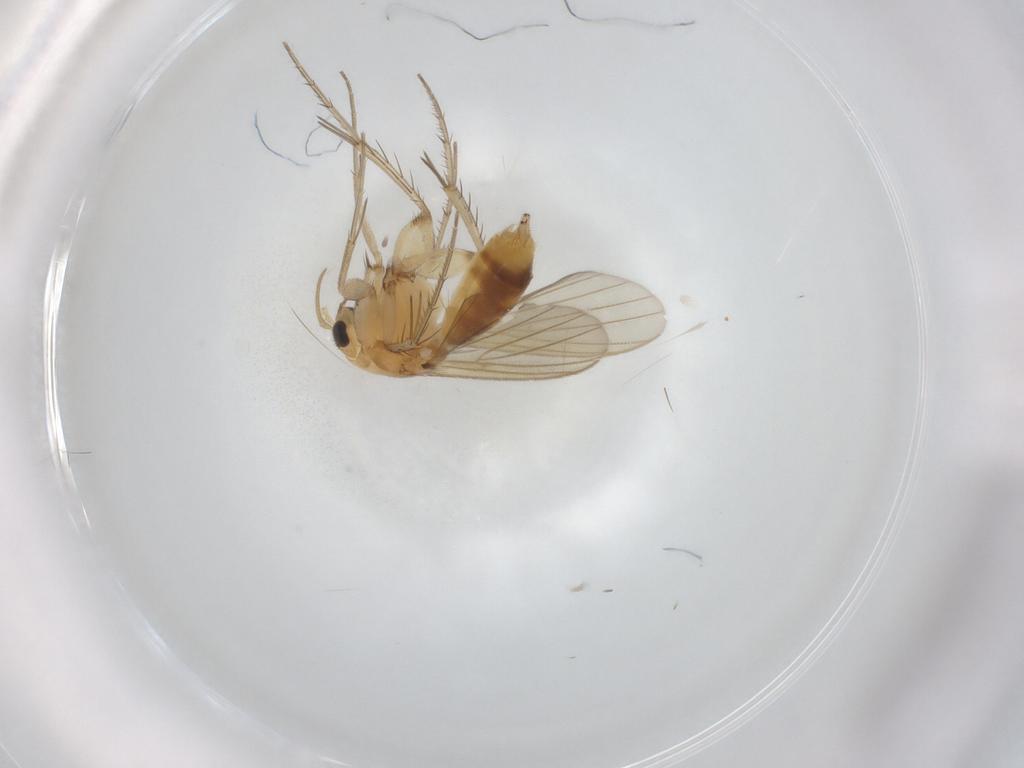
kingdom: Animalia
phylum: Arthropoda
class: Insecta
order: Diptera
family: Mycetophilidae
